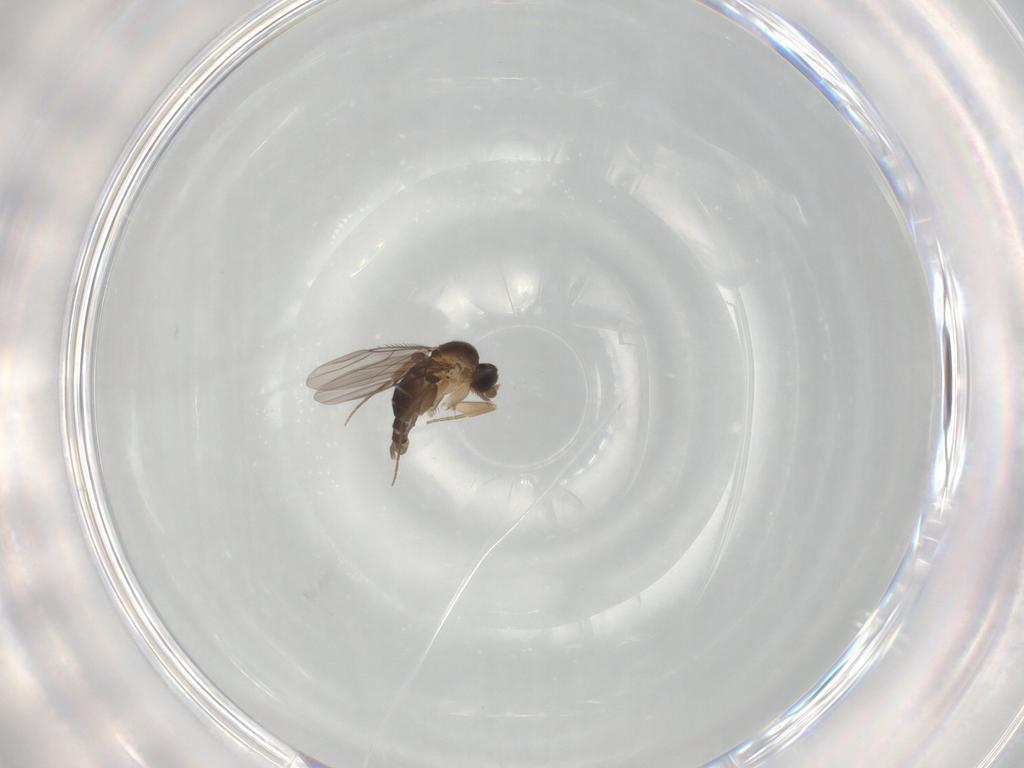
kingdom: Animalia
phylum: Arthropoda
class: Insecta
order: Diptera
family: Phoridae
